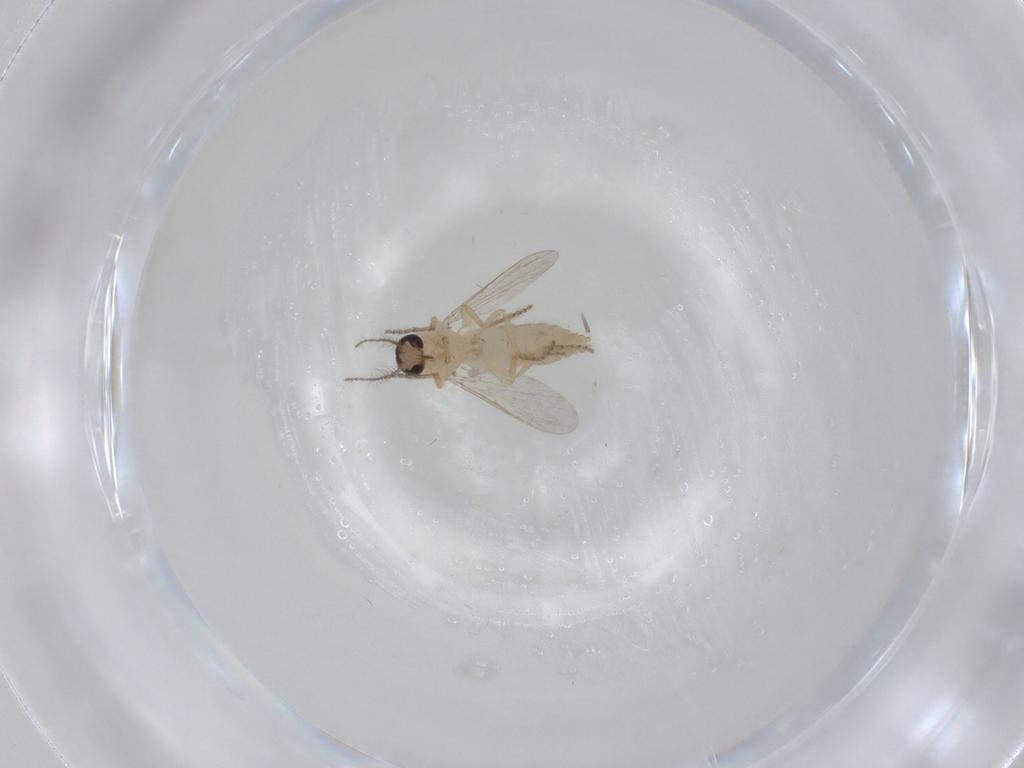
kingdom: Animalia
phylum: Arthropoda
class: Insecta
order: Diptera
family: Ceratopogonidae
